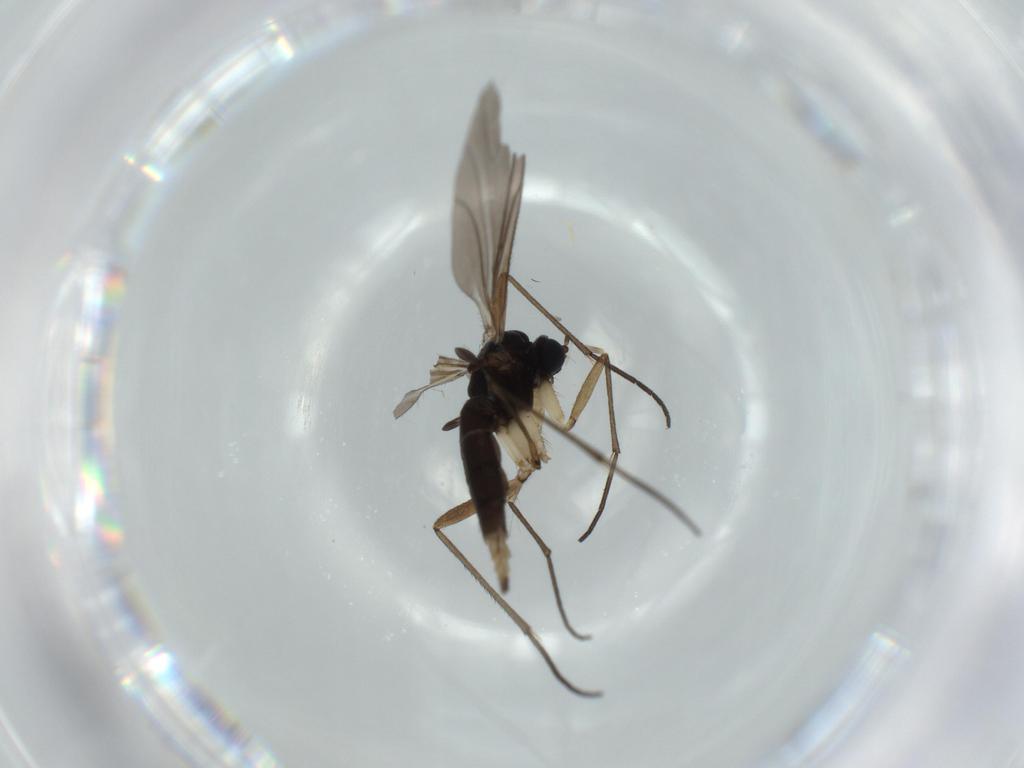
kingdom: Animalia
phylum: Arthropoda
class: Insecta
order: Diptera
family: Sciaridae
